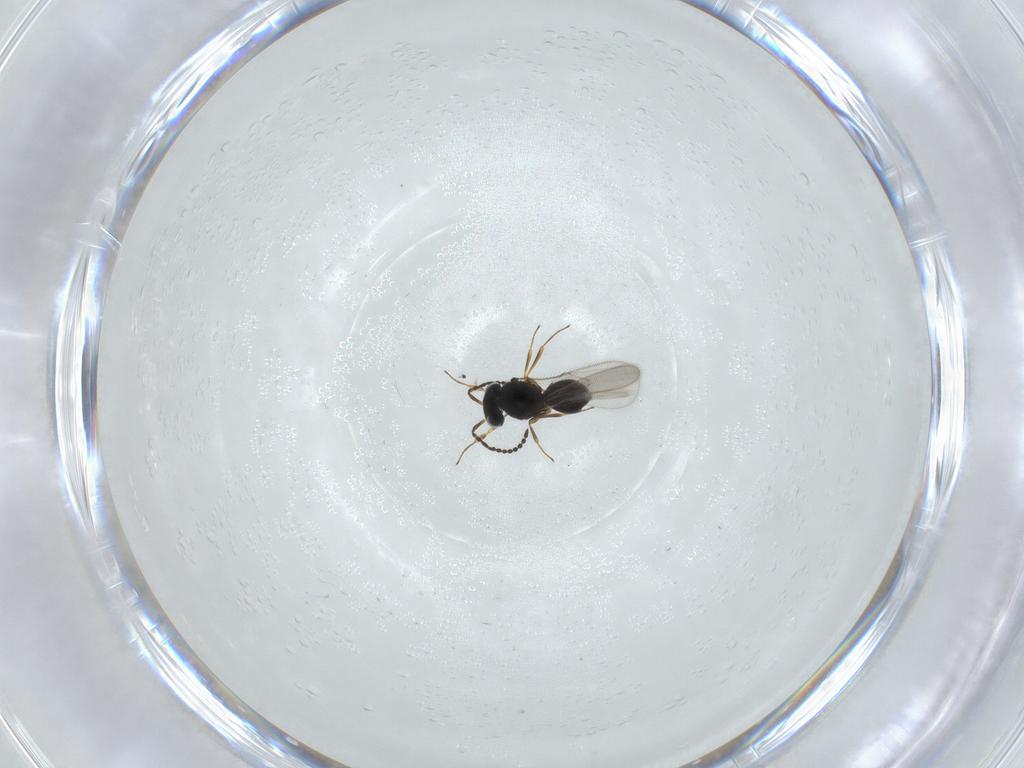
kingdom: Animalia
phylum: Arthropoda
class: Insecta
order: Hymenoptera
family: Scelionidae
